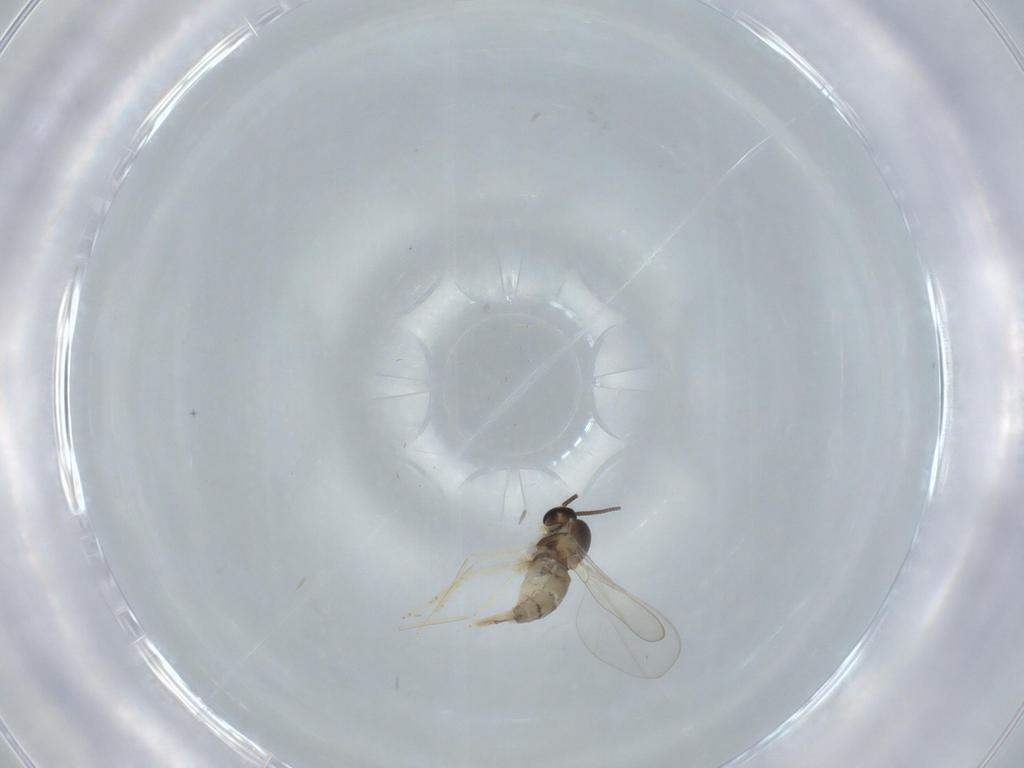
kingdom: Animalia
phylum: Arthropoda
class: Insecta
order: Diptera
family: Cecidomyiidae
